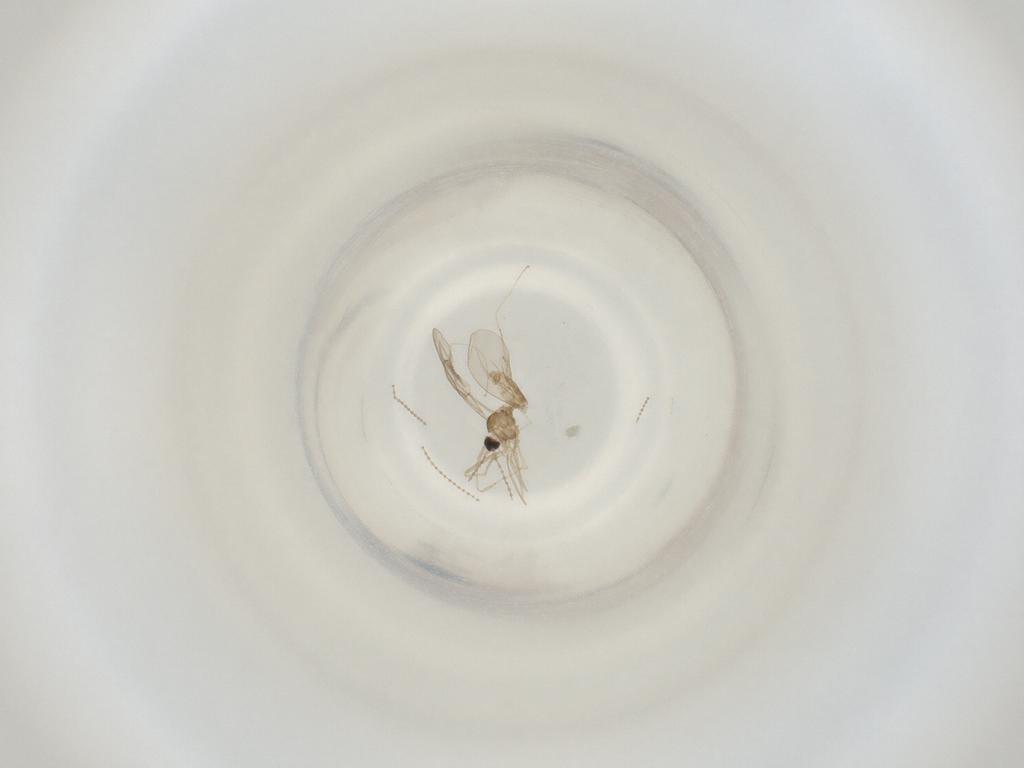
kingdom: Animalia
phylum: Arthropoda
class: Insecta
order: Diptera
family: Cecidomyiidae
